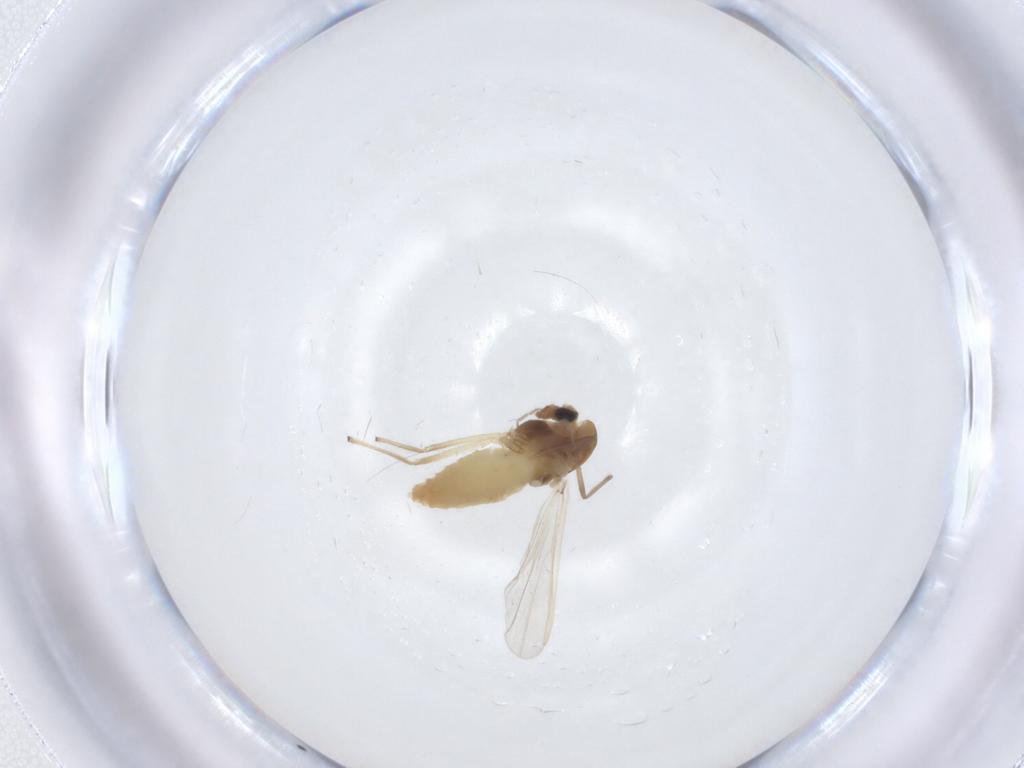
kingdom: Animalia
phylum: Arthropoda
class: Insecta
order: Diptera
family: Chironomidae
